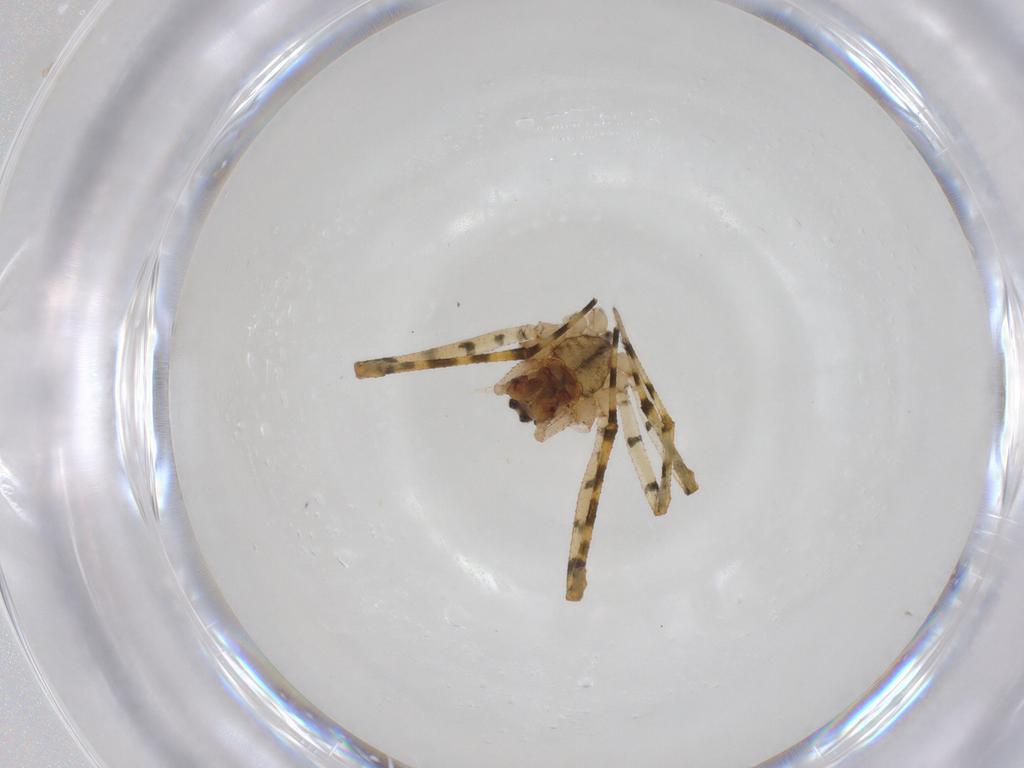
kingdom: Animalia
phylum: Arthropoda
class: Arachnida
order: Araneae
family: Theridiidae
